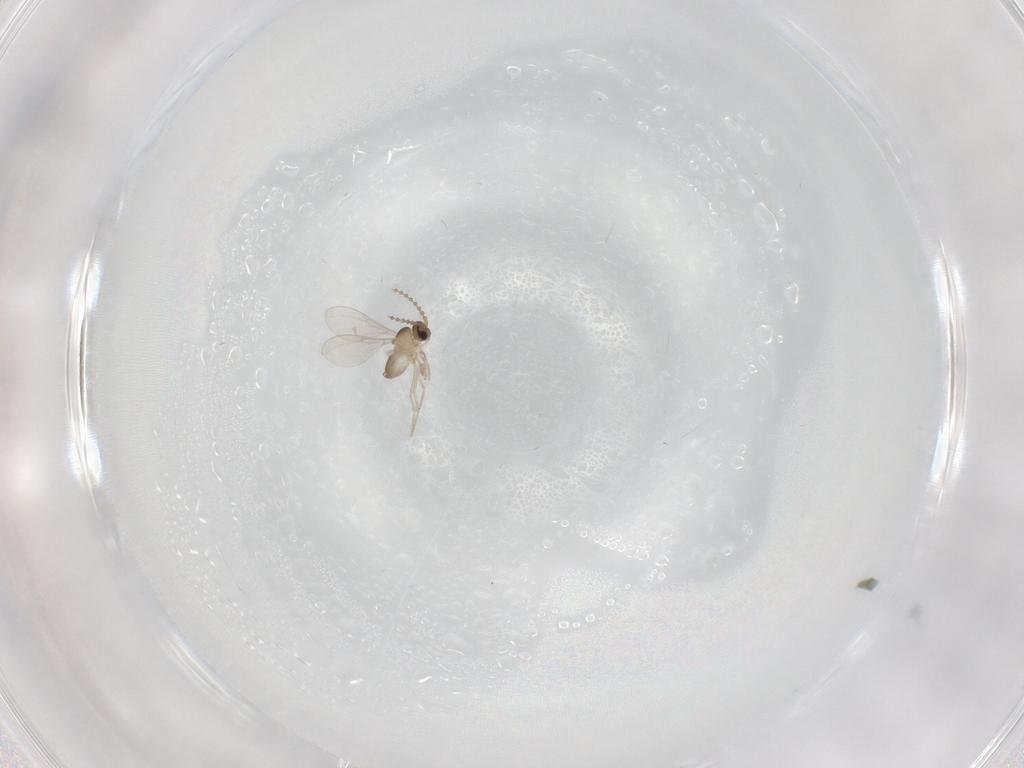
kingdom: Animalia
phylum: Arthropoda
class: Insecta
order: Diptera
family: Cecidomyiidae
